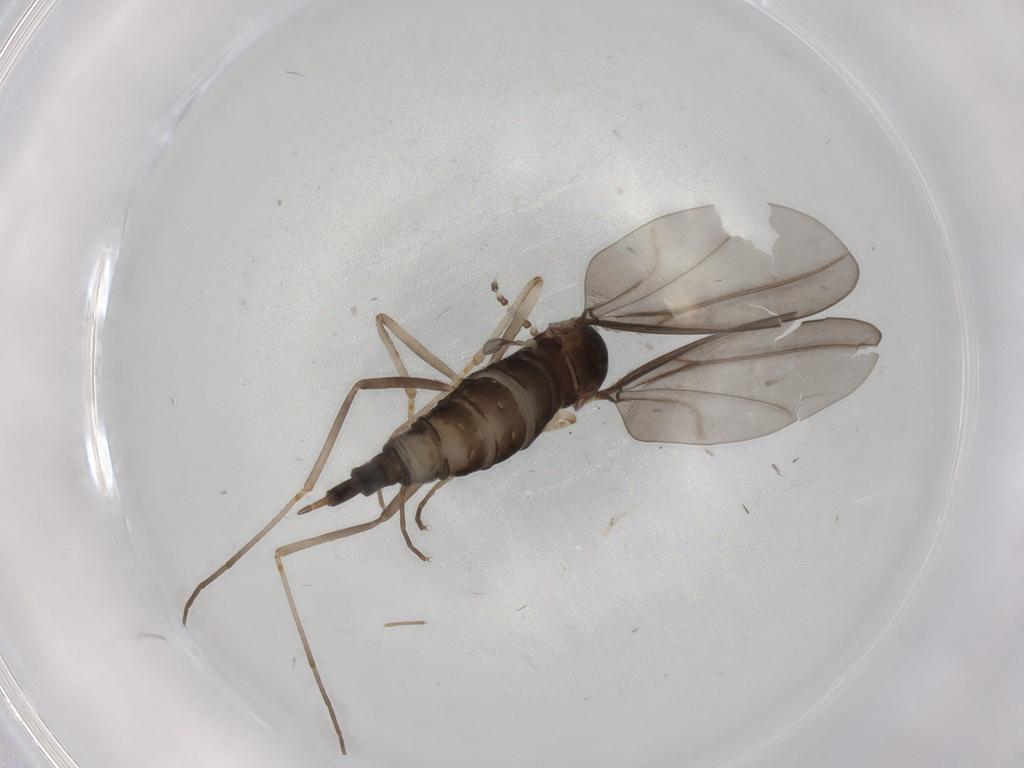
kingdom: Animalia
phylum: Arthropoda
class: Insecta
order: Diptera
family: Cecidomyiidae
